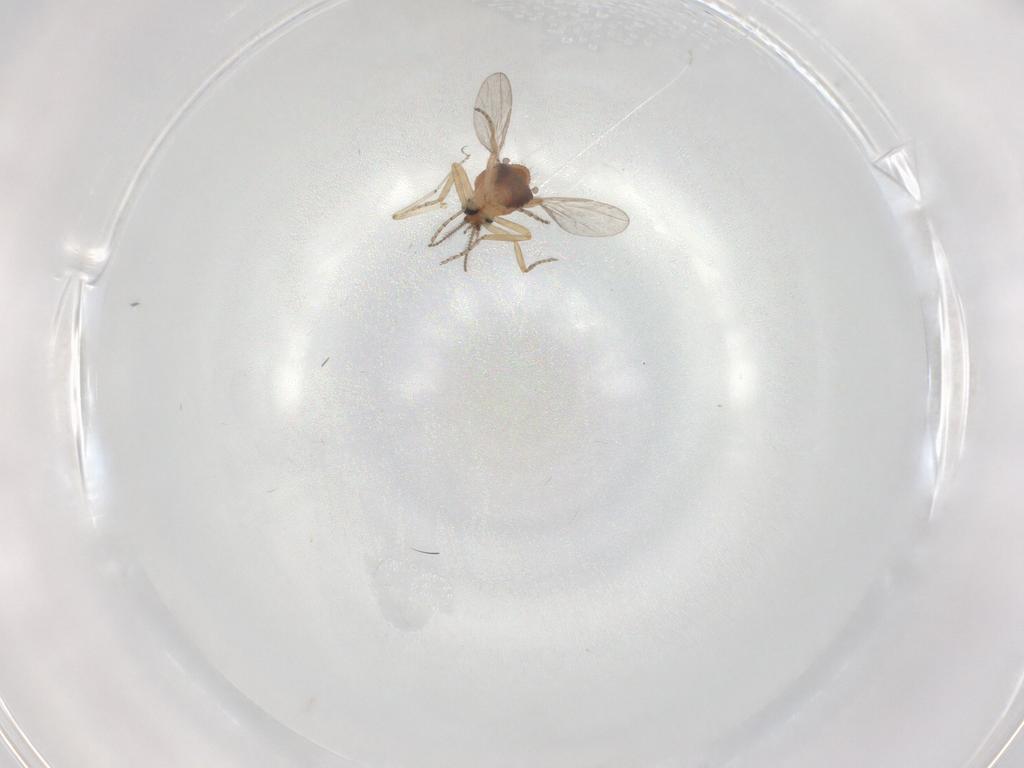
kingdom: Animalia
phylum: Arthropoda
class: Insecta
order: Diptera
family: Ceratopogonidae
